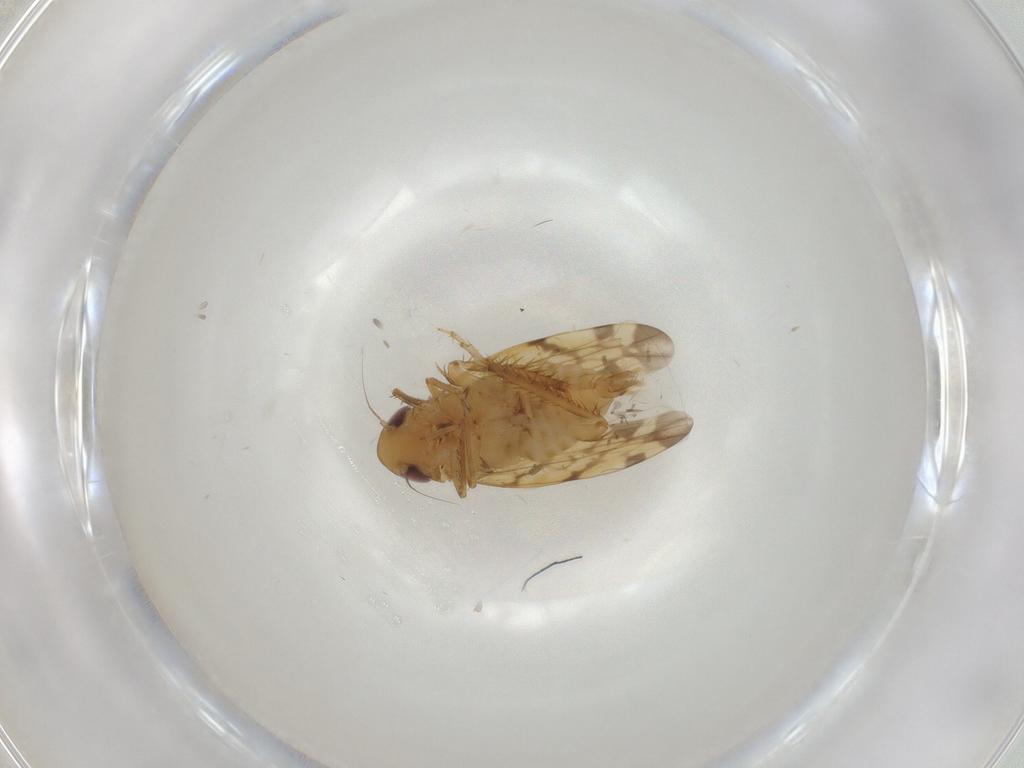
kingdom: Animalia
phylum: Arthropoda
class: Insecta
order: Hemiptera
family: Cicadellidae
